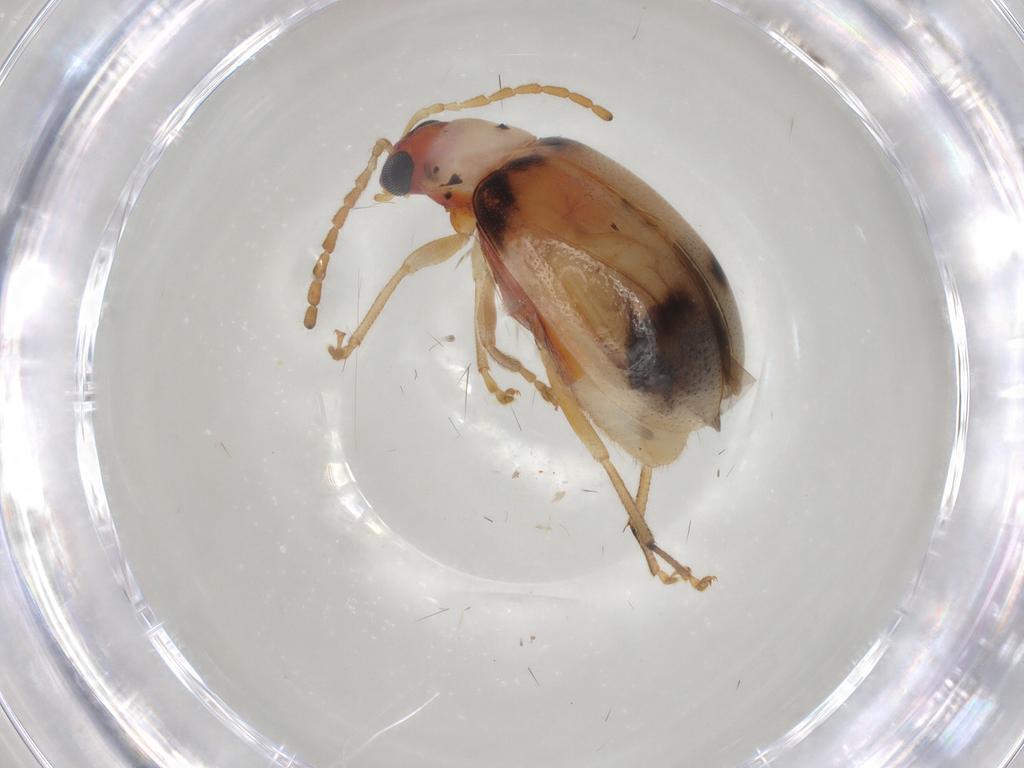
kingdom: Animalia
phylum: Arthropoda
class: Insecta
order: Coleoptera
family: Chrysomelidae
